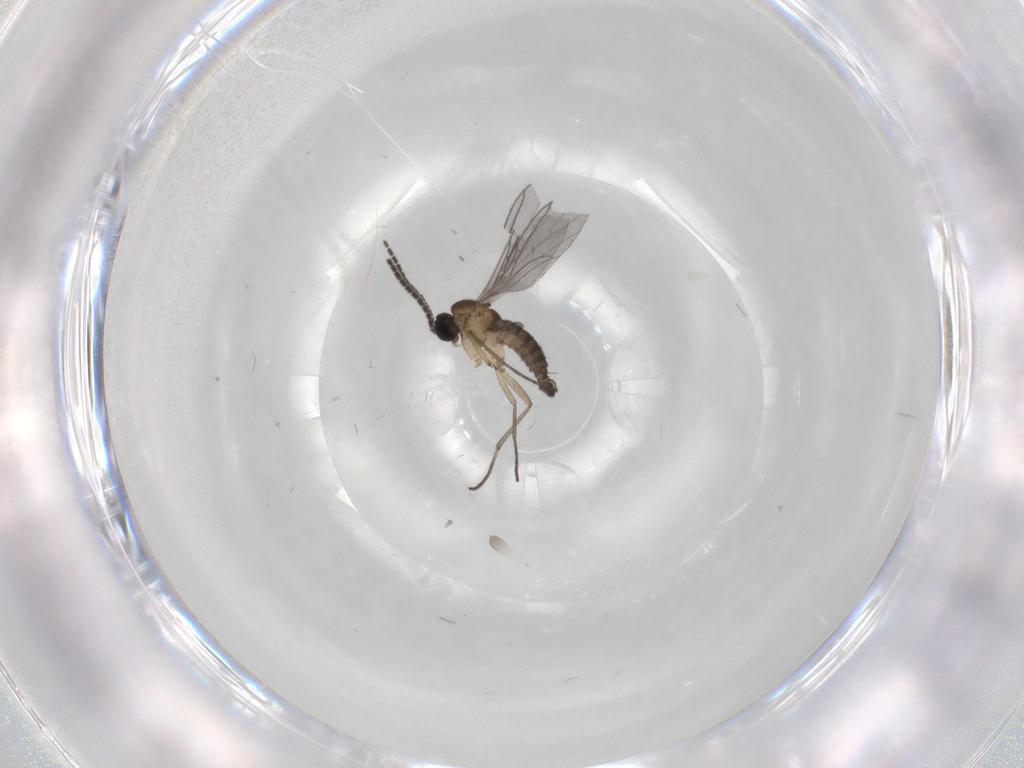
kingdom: Animalia
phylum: Arthropoda
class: Insecta
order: Diptera
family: Sciaridae
